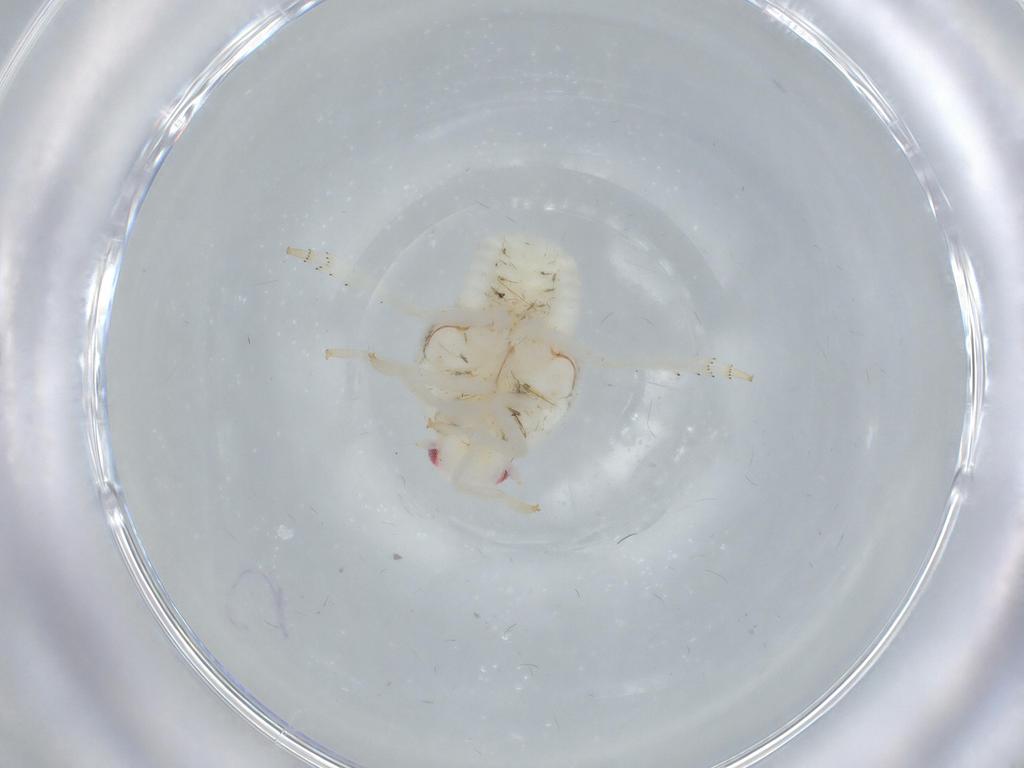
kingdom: Animalia
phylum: Arthropoda
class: Insecta
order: Hemiptera
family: Flatidae
